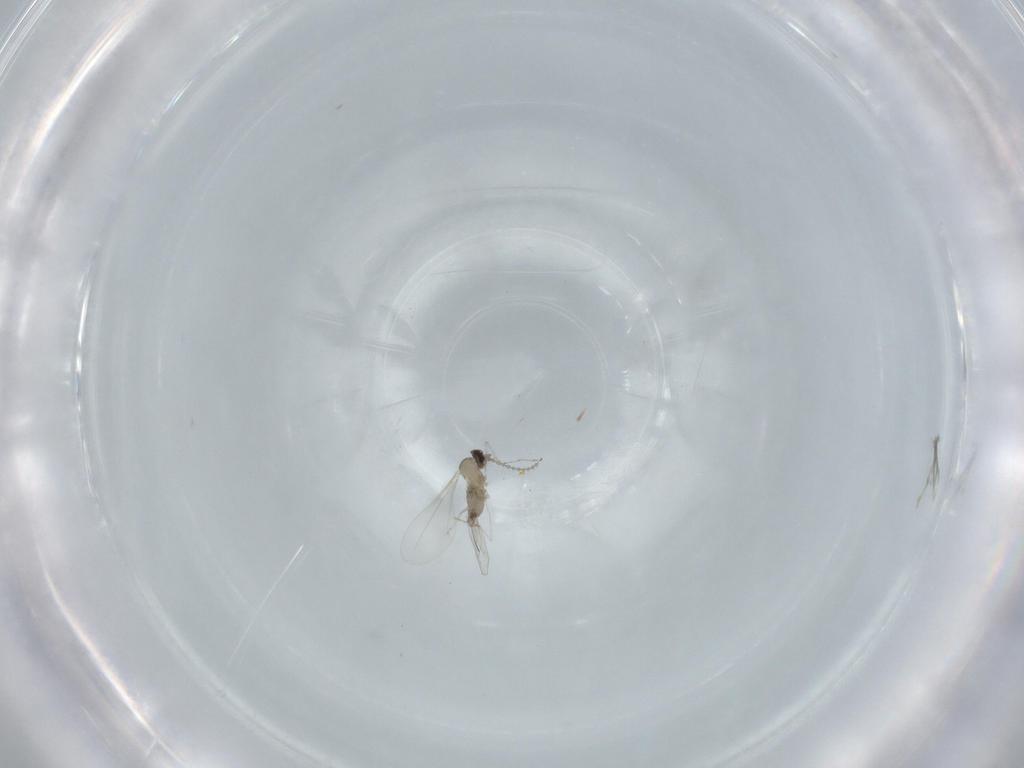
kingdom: Animalia
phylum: Arthropoda
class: Insecta
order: Diptera
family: Cecidomyiidae
